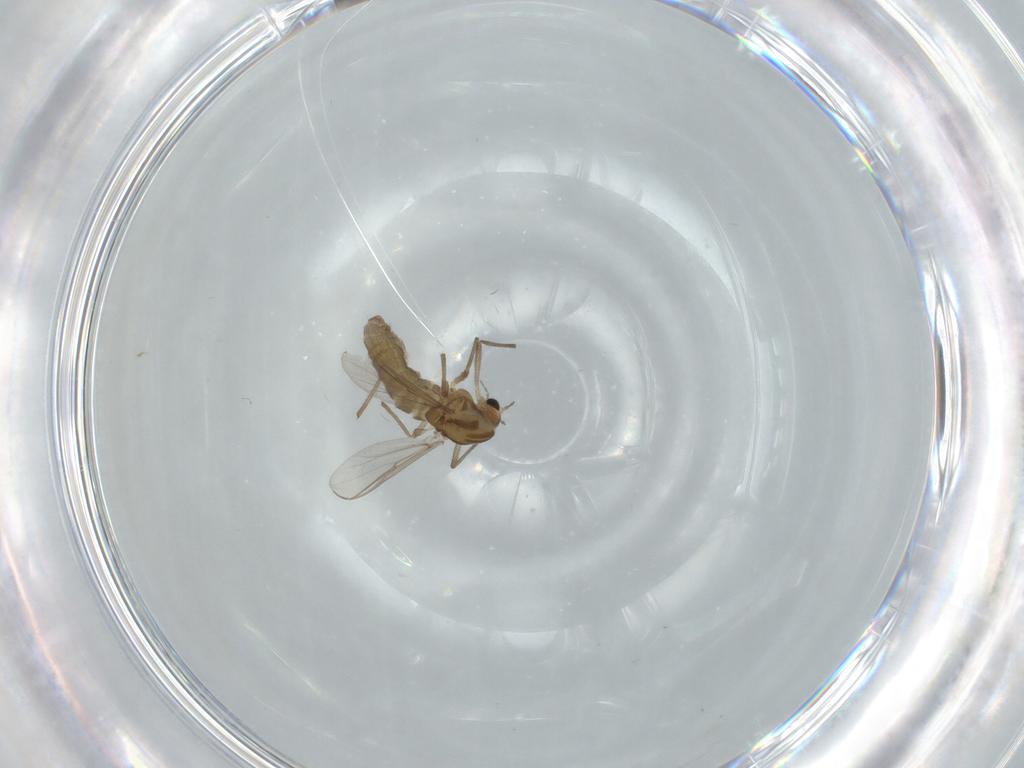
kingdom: Animalia
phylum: Arthropoda
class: Insecta
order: Diptera
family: Chironomidae
